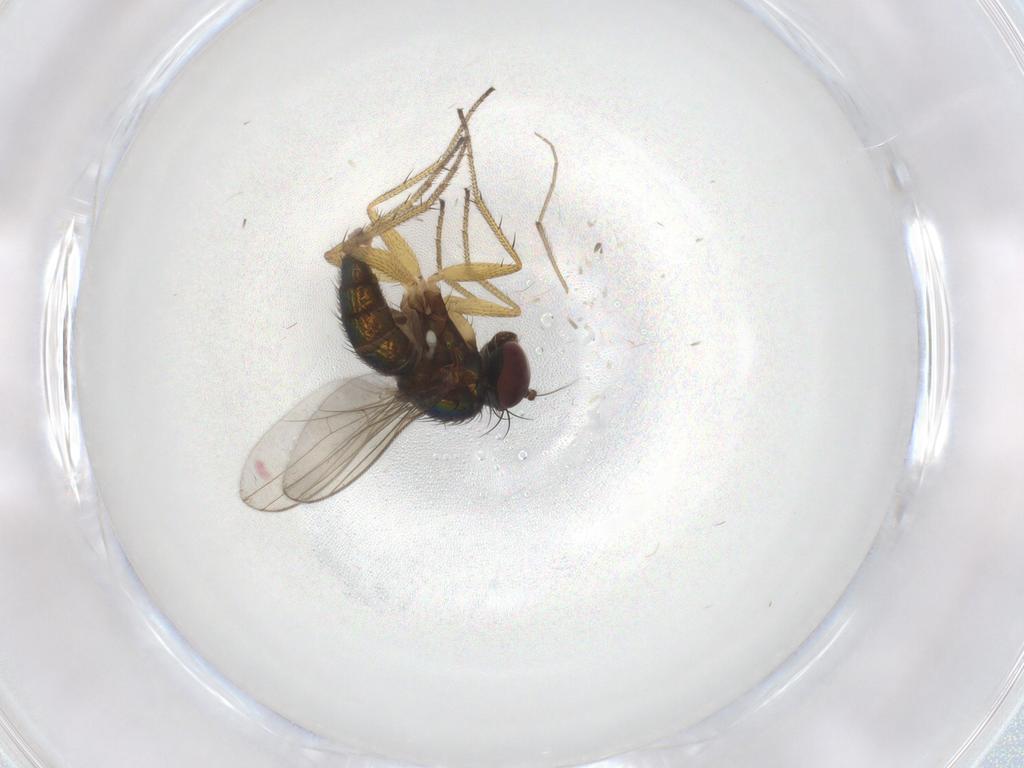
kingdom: Animalia
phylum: Arthropoda
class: Insecta
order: Diptera
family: Chironomidae
